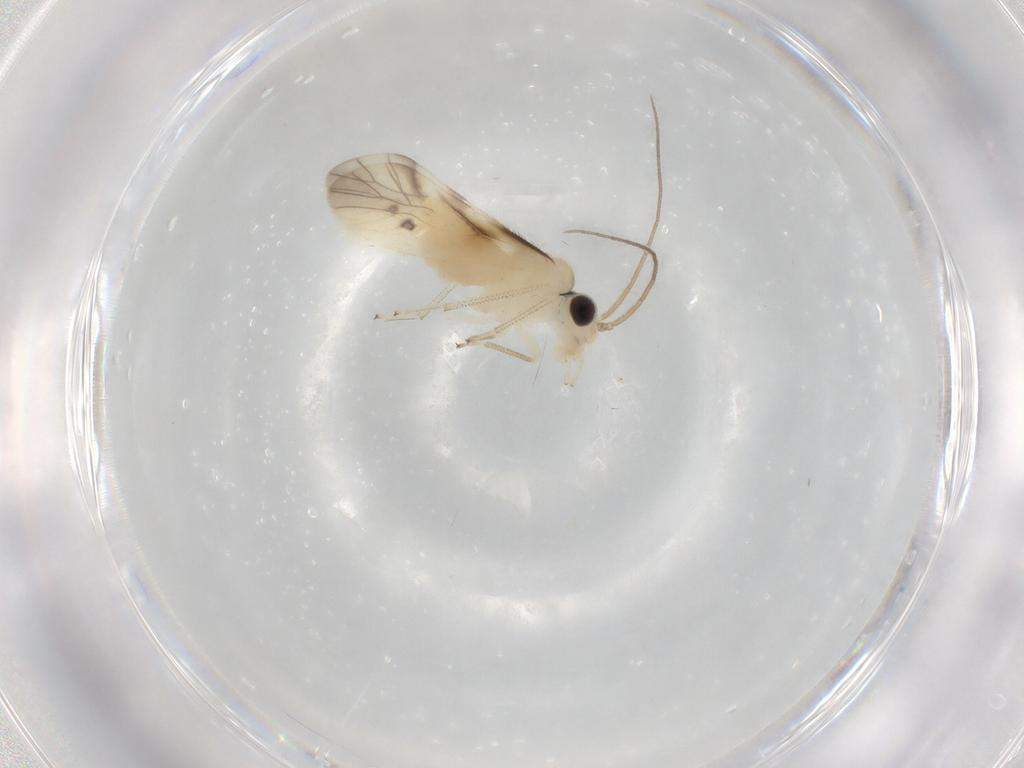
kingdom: Animalia
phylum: Arthropoda
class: Insecta
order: Psocodea
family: Caeciliusidae
